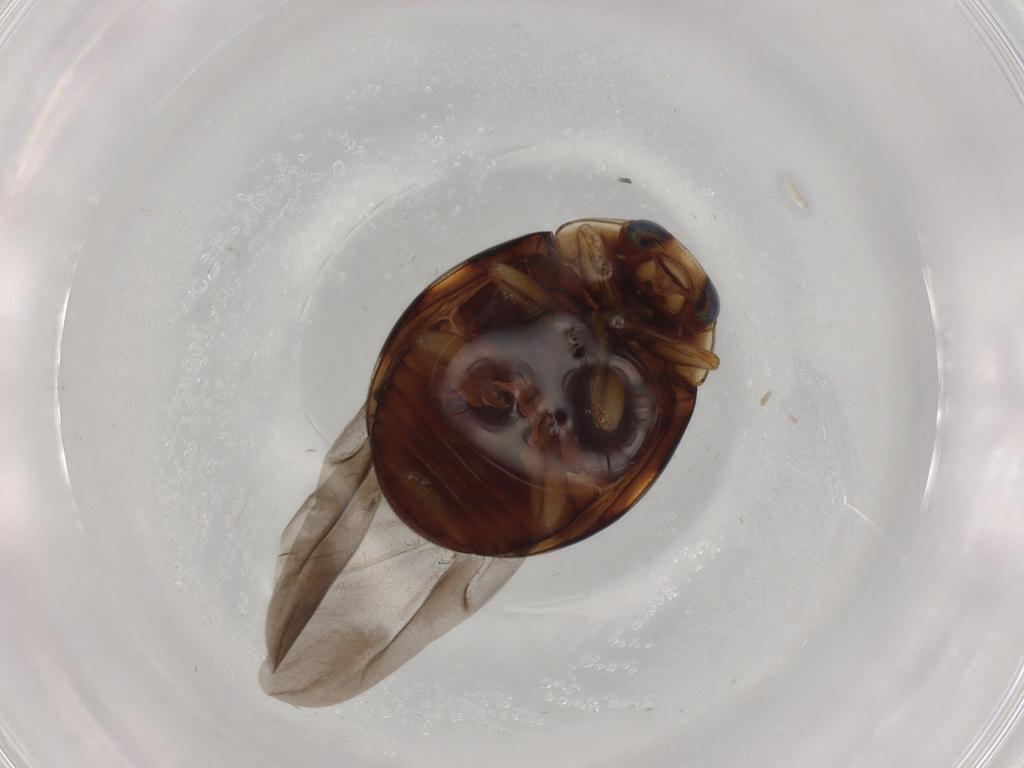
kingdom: Animalia
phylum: Arthropoda
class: Insecta
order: Coleoptera
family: Coccinellidae
